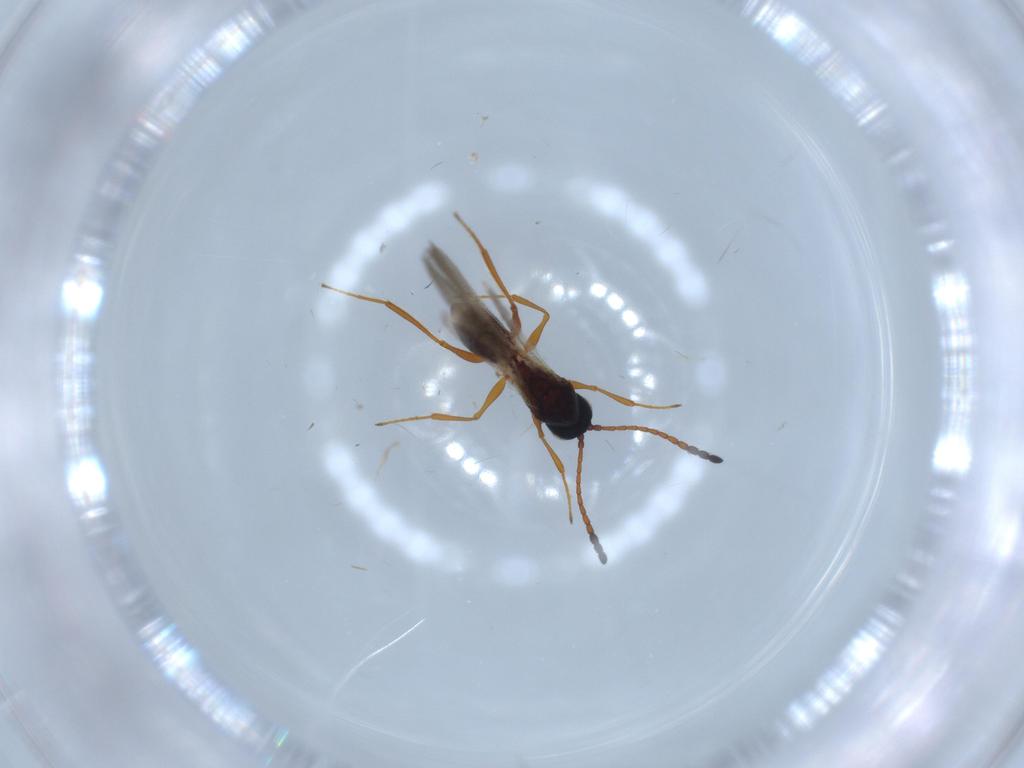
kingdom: Animalia
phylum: Arthropoda
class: Insecta
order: Hymenoptera
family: Figitidae
